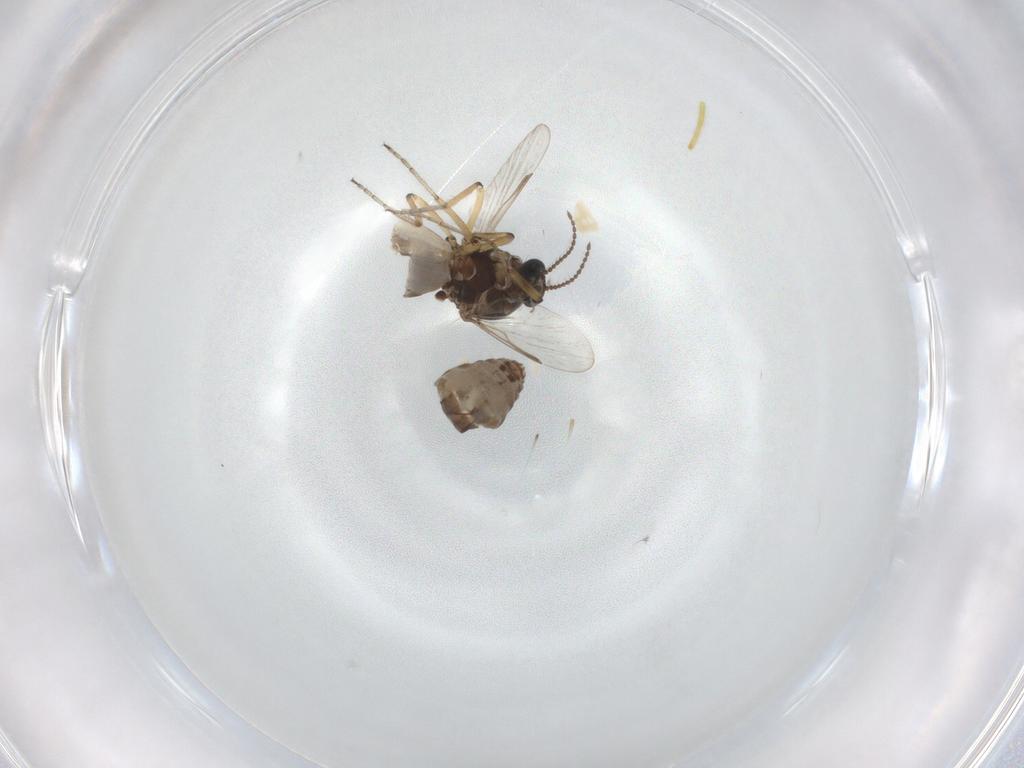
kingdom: Animalia
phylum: Arthropoda
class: Insecta
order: Diptera
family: Ceratopogonidae
